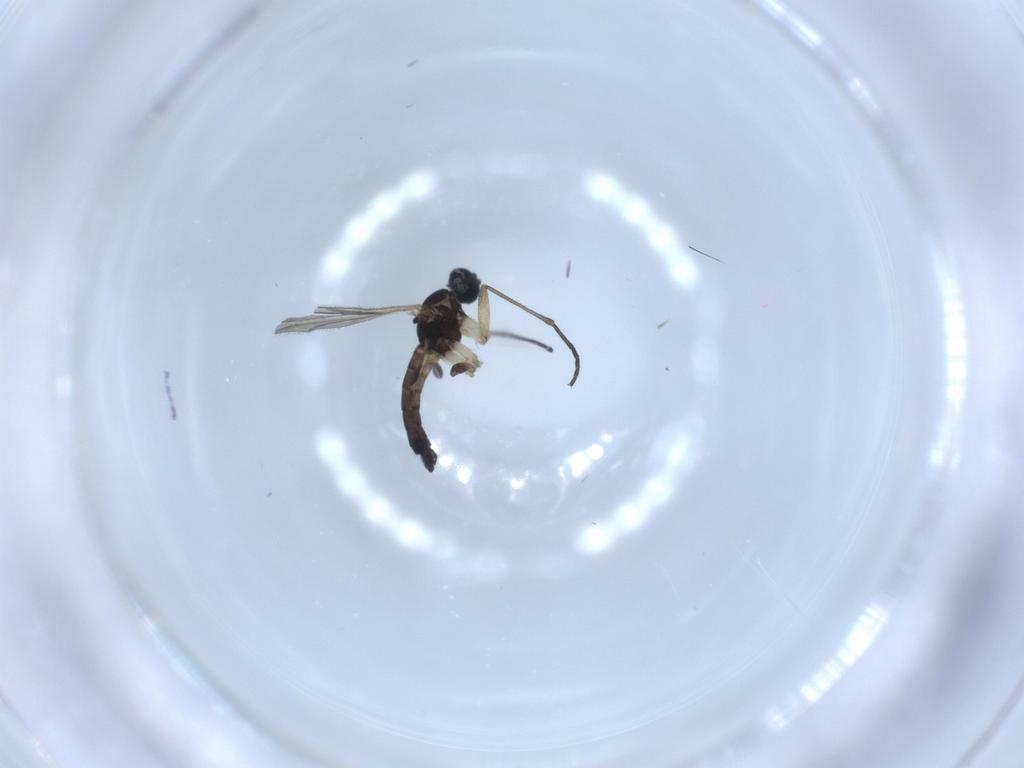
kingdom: Animalia
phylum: Arthropoda
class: Insecta
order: Diptera
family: Sciaridae
